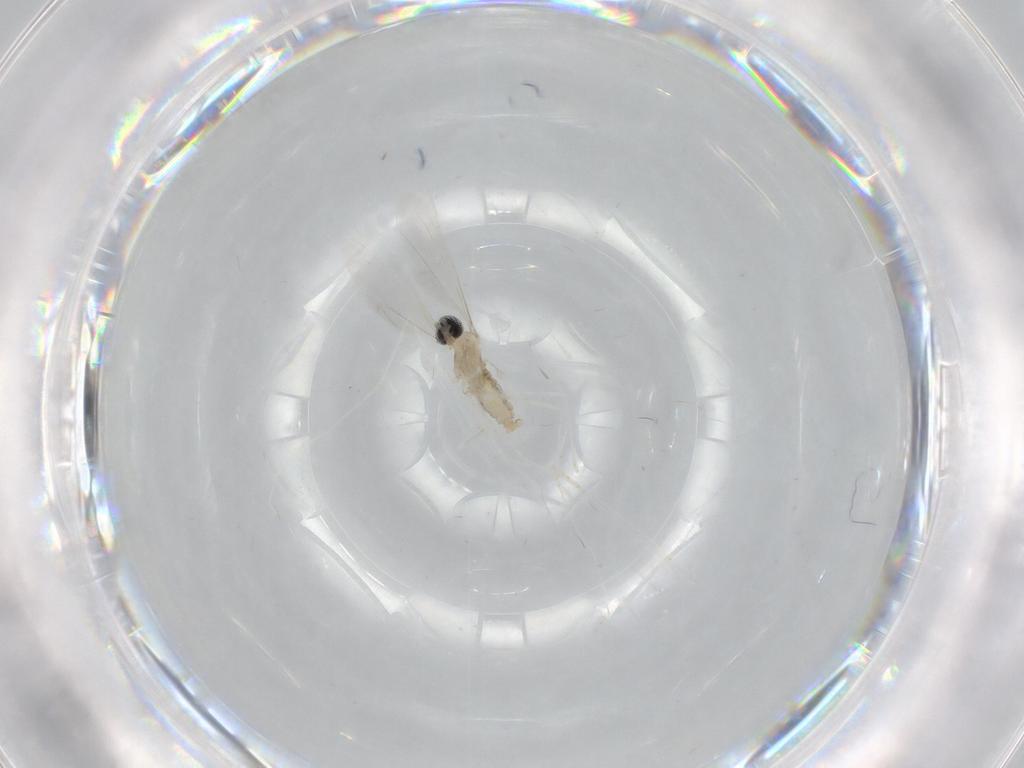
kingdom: Animalia
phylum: Arthropoda
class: Insecta
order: Diptera
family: Cecidomyiidae
